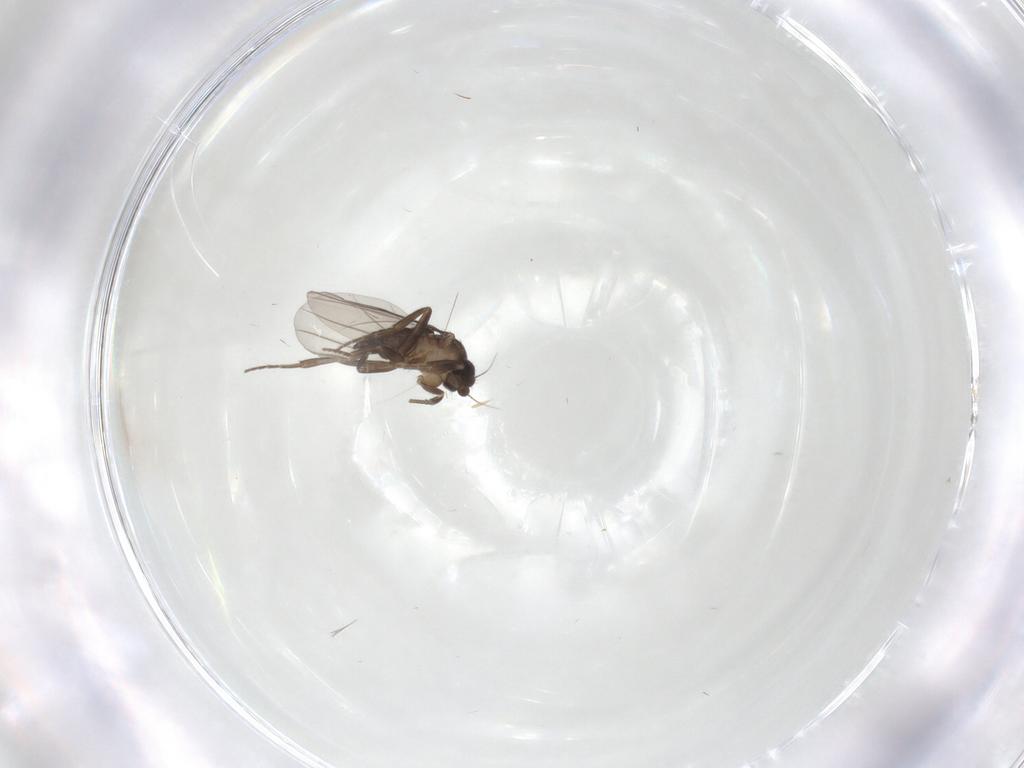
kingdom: Animalia
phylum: Arthropoda
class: Insecta
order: Diptera
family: Phoridae
